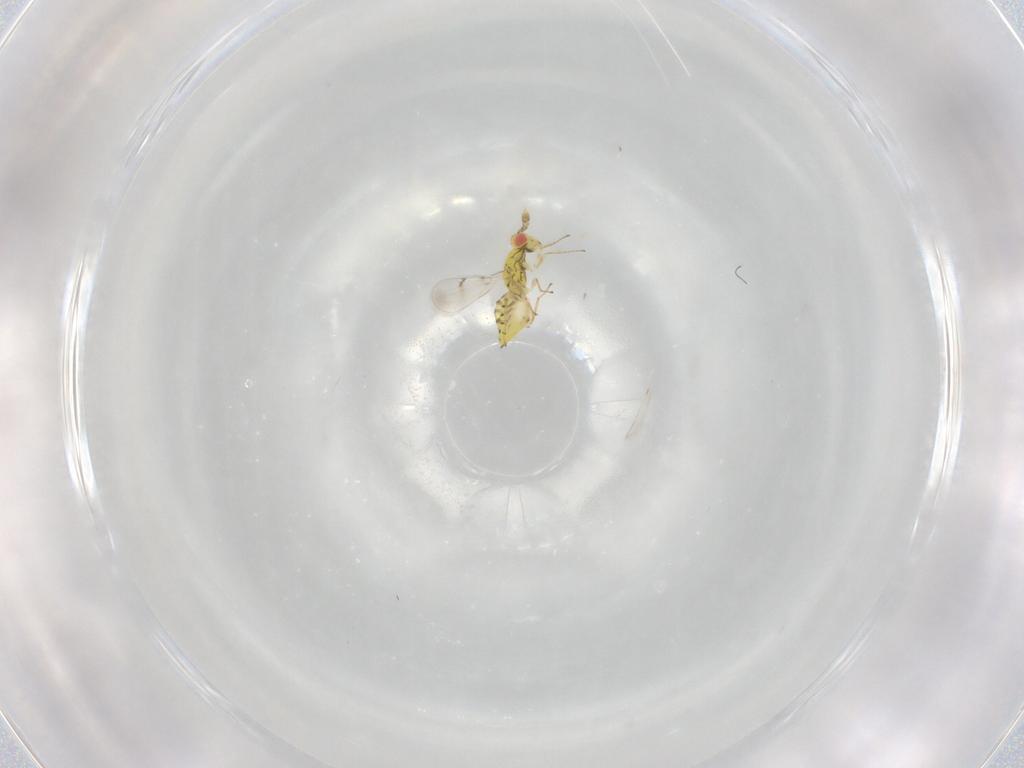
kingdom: Animalia
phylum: Arthropoda
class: Insecta
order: Hymenoptera
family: Eulophidae
